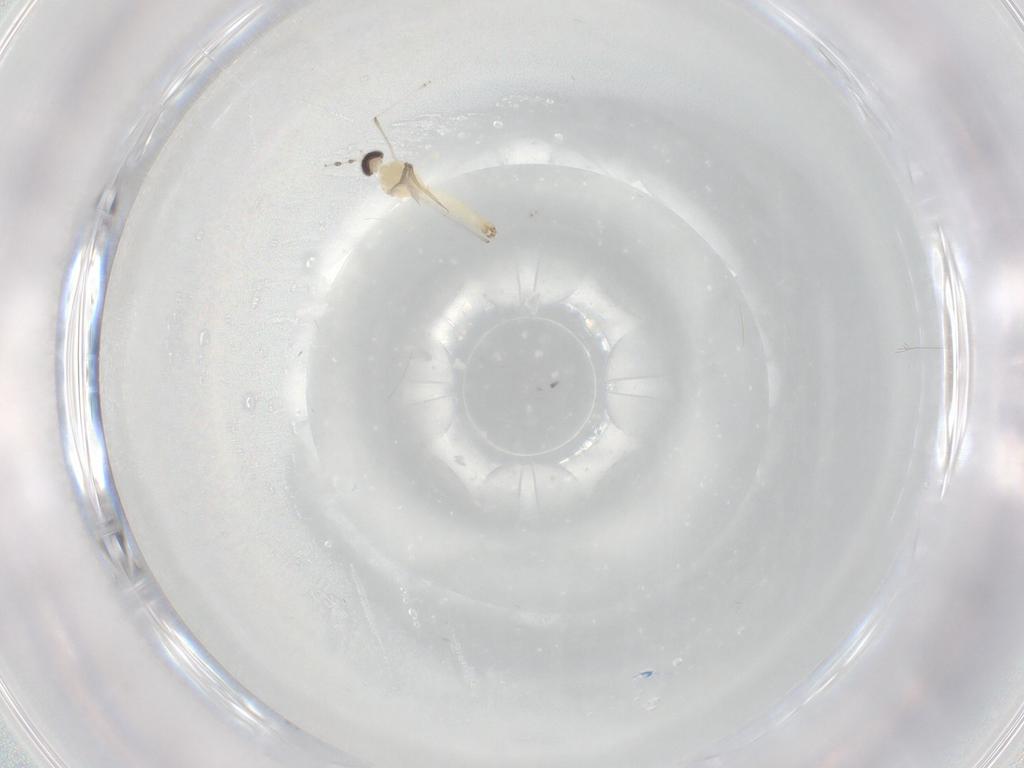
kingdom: Animalia
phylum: Arthropoda
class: Insecta
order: Diptera
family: Cecidomyiidae
